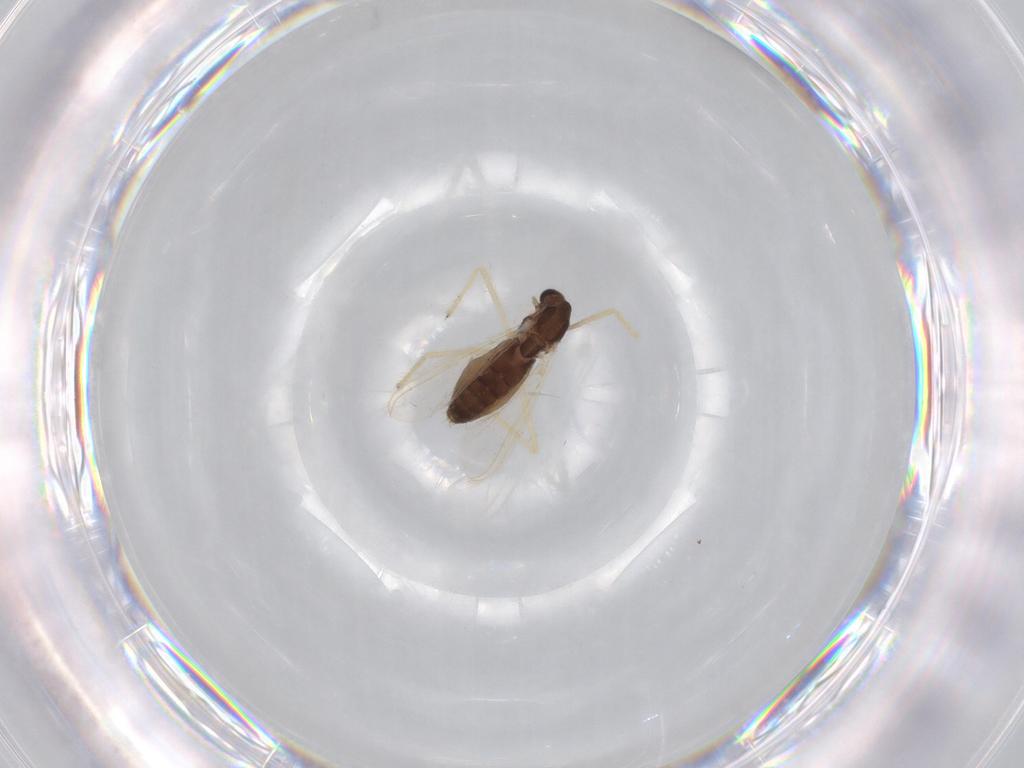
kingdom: Animalia
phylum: Arthropoda
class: Insecta
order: Diptera
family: Chironomidae
